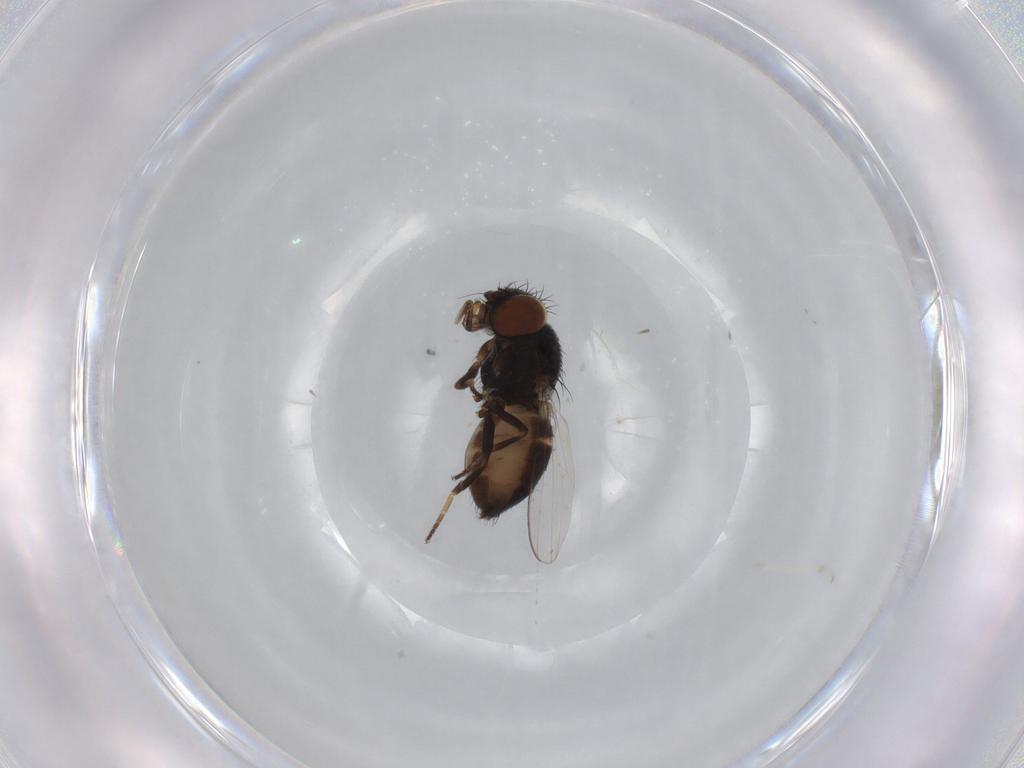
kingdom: Animalia
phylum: Arthropoda
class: Insecta
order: Diptera
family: Milichiidae
